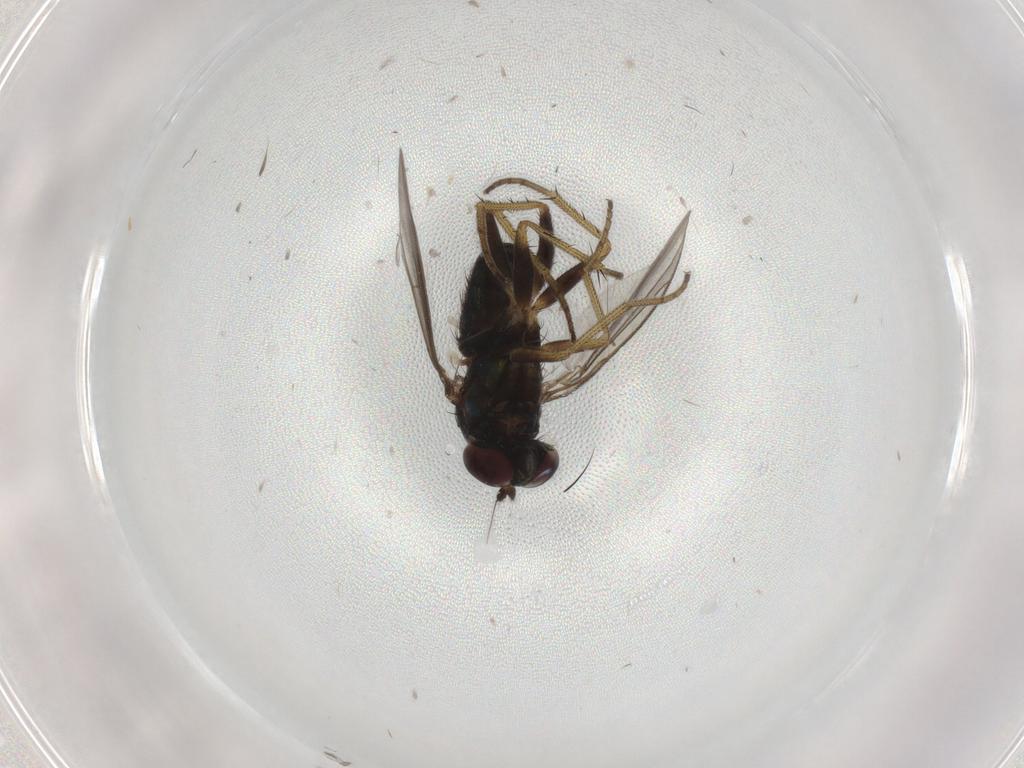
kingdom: Animalia
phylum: Arthropoda
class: Insecta
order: Diptera
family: Dolichopodidae
